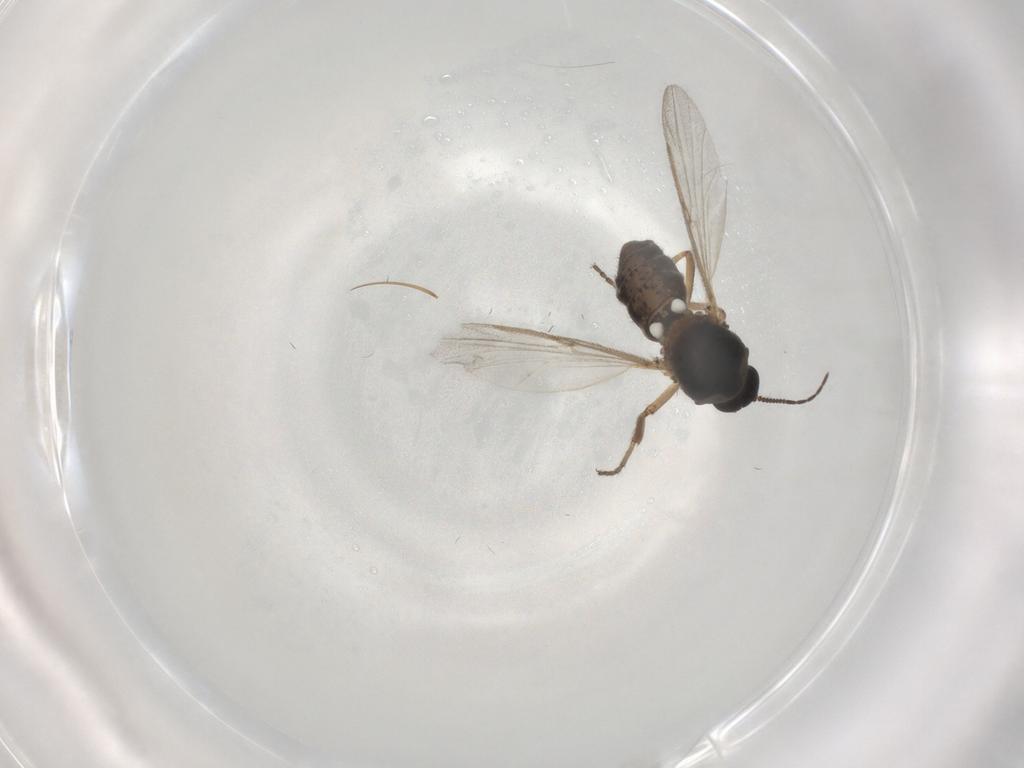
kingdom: Animalia
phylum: Arthropoda
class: Insecta
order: Diptera
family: Ceratopogonidae
